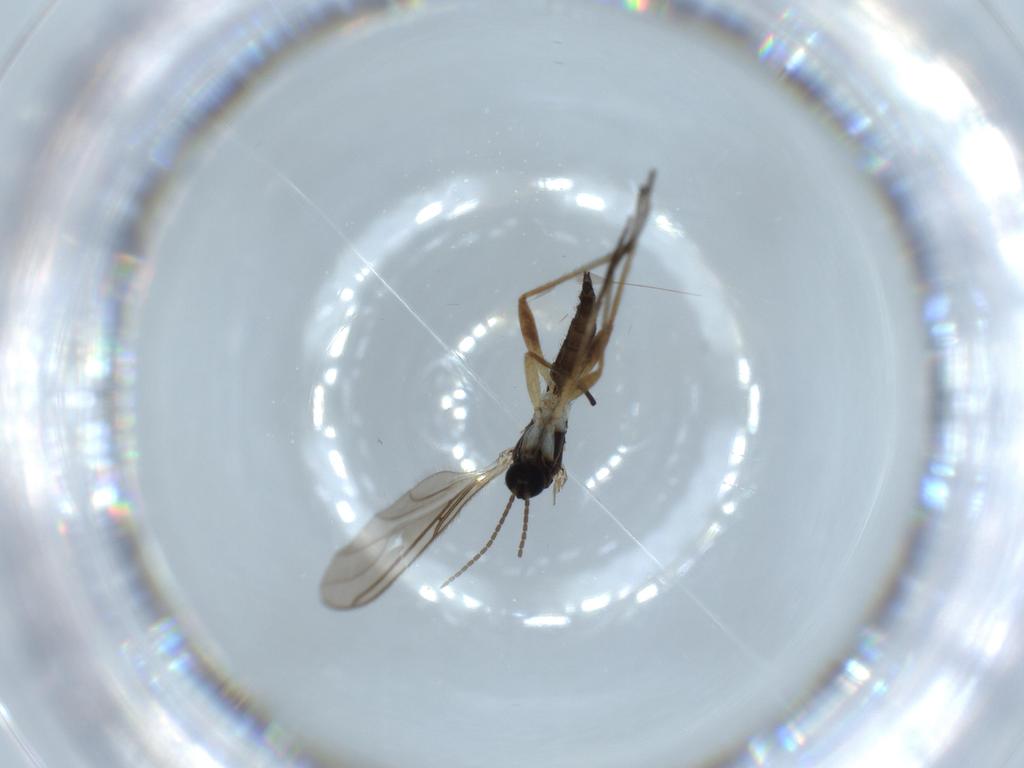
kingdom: Animalia
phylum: Arthropoda
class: Insecta
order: Diptera
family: Sciaridae
